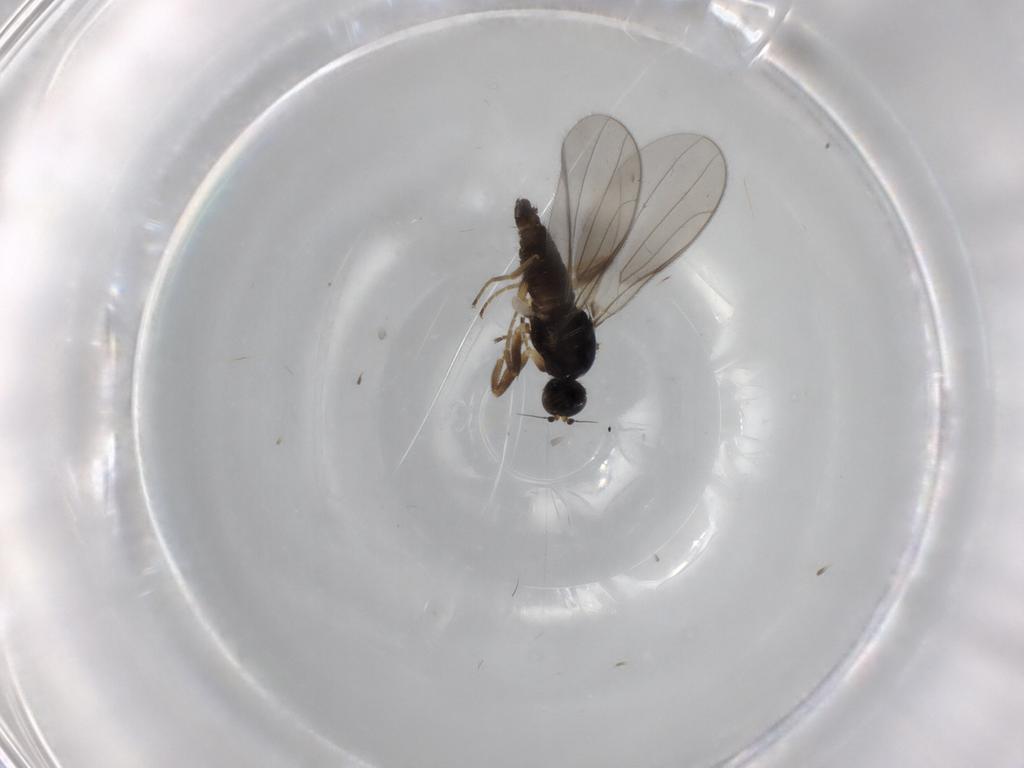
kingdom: Animalia
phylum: Arthropoda
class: Insecta
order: Diptera
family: Hybotidae
